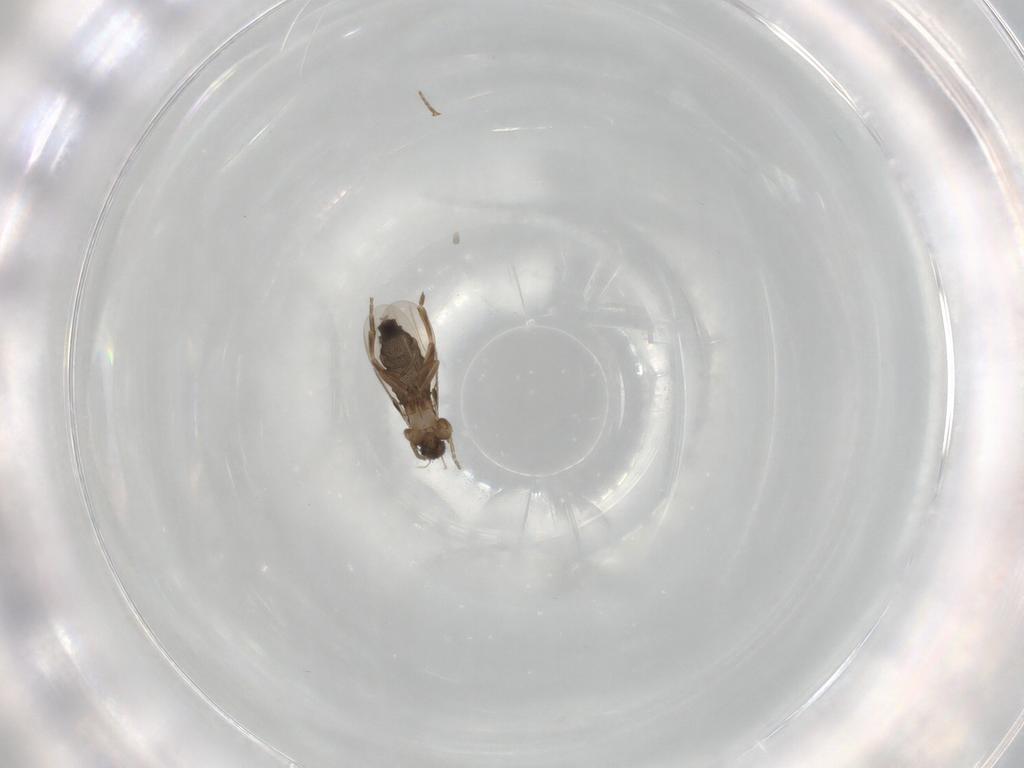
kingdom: Animalia
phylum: Arthropoda
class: Insecta
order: Diptera
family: Phoridae
